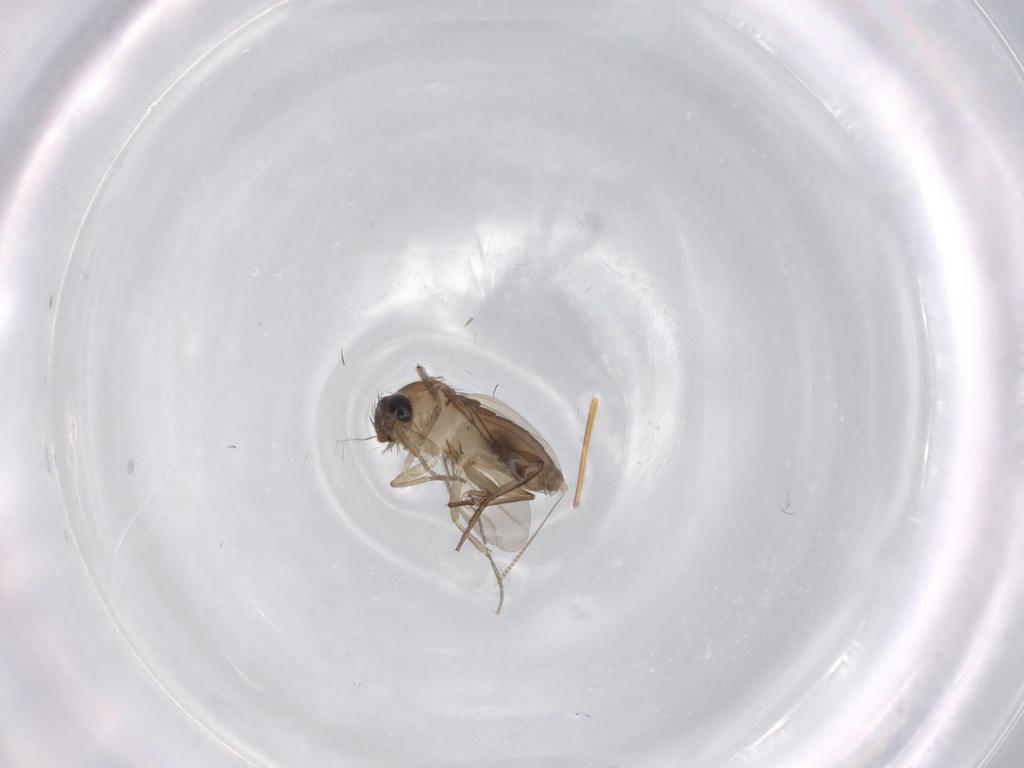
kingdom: Animalia
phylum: Arthropoda
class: Insecta
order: Diptera
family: Phoridae
